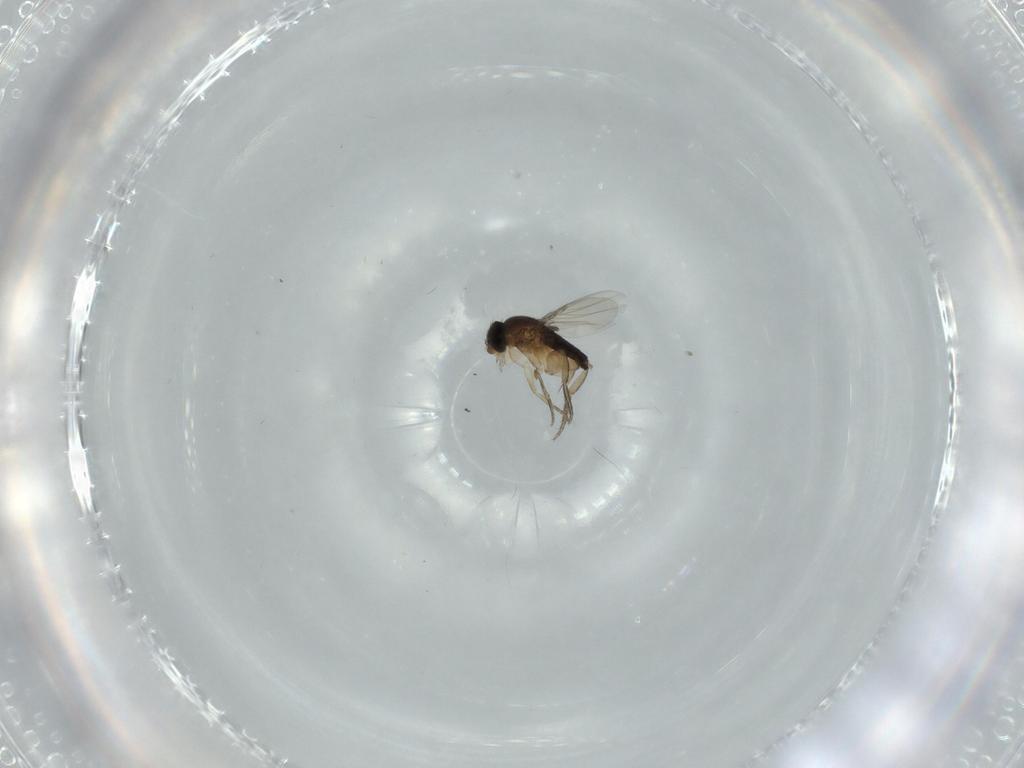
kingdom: Animalia
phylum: Arthropoda
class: Insecta
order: Diptera
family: Phoridae
